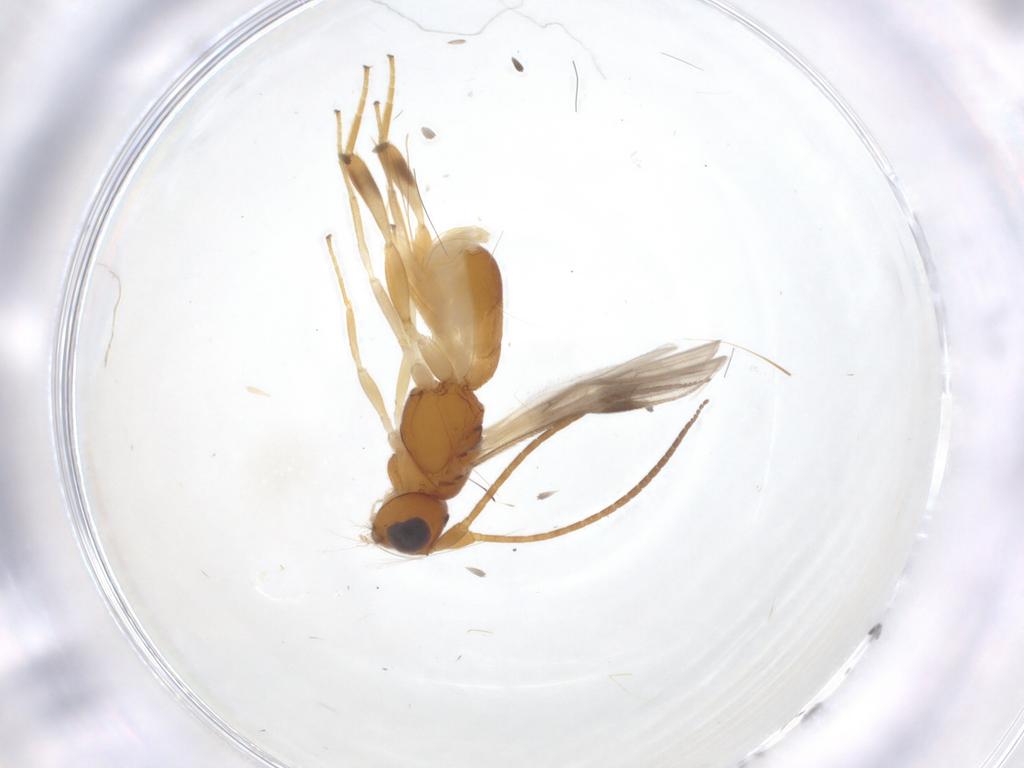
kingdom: Animalia
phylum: Arthropoda
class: Insecta
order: Hymenoptera
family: Braconidae
